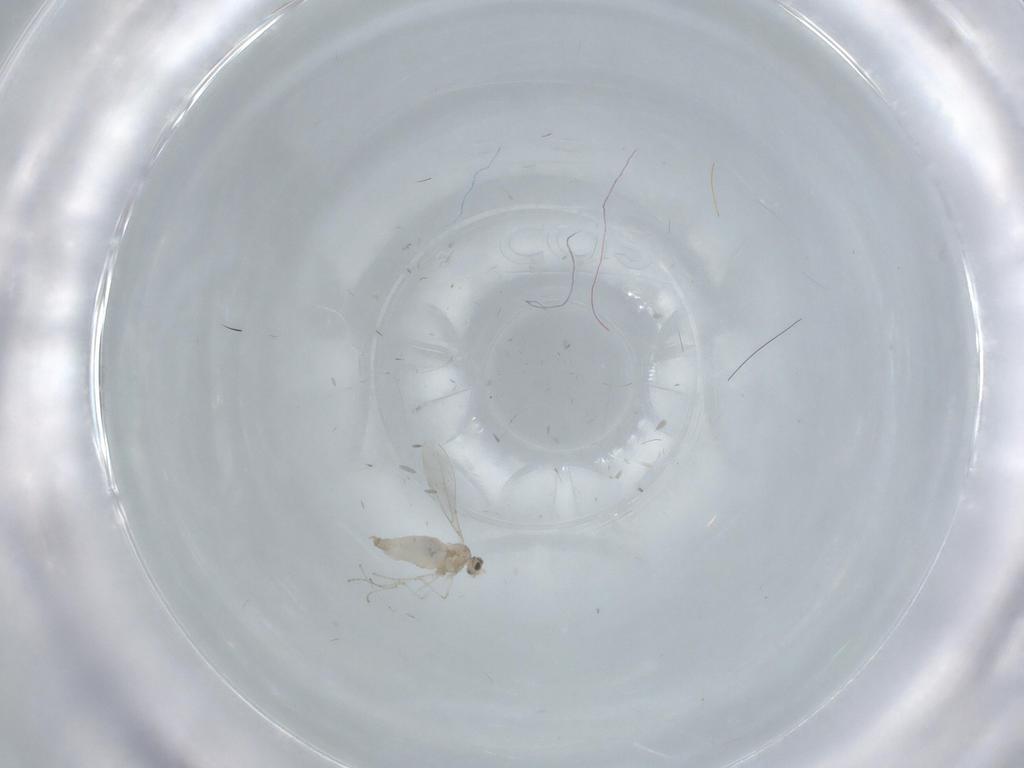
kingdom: Animalia
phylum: Arthropoda
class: Insecta
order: Diptera
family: Cecidomyiidae
